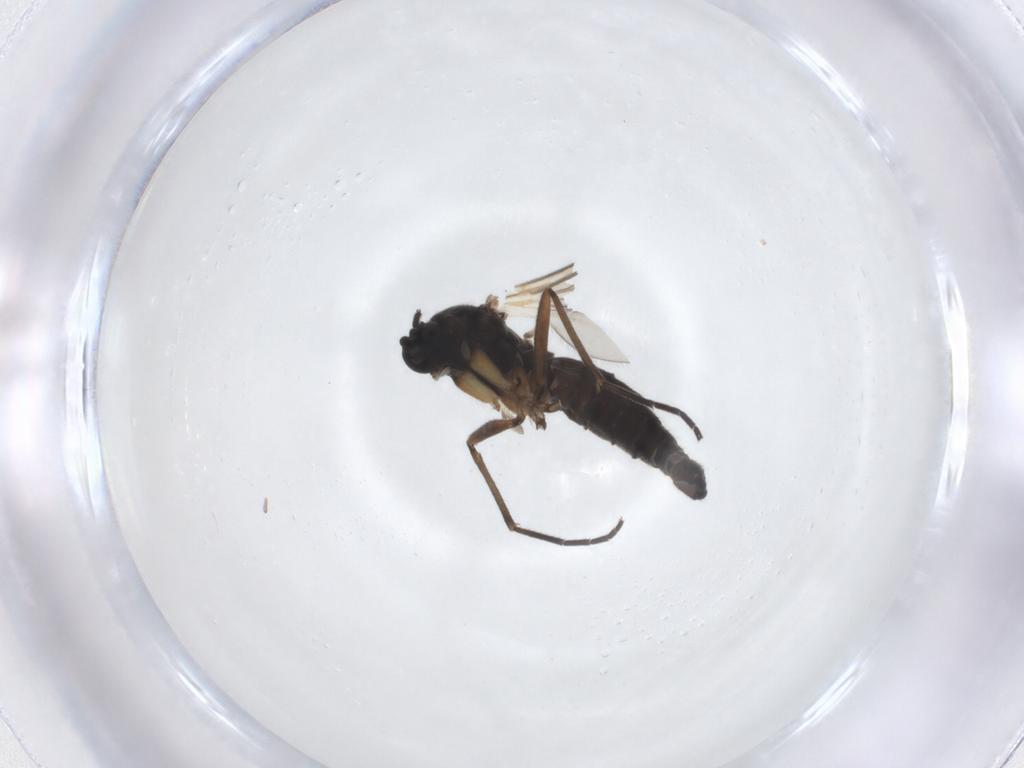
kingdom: Animalia
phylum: Arthropoda
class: Insecta
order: Diptera
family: Sciaridae
